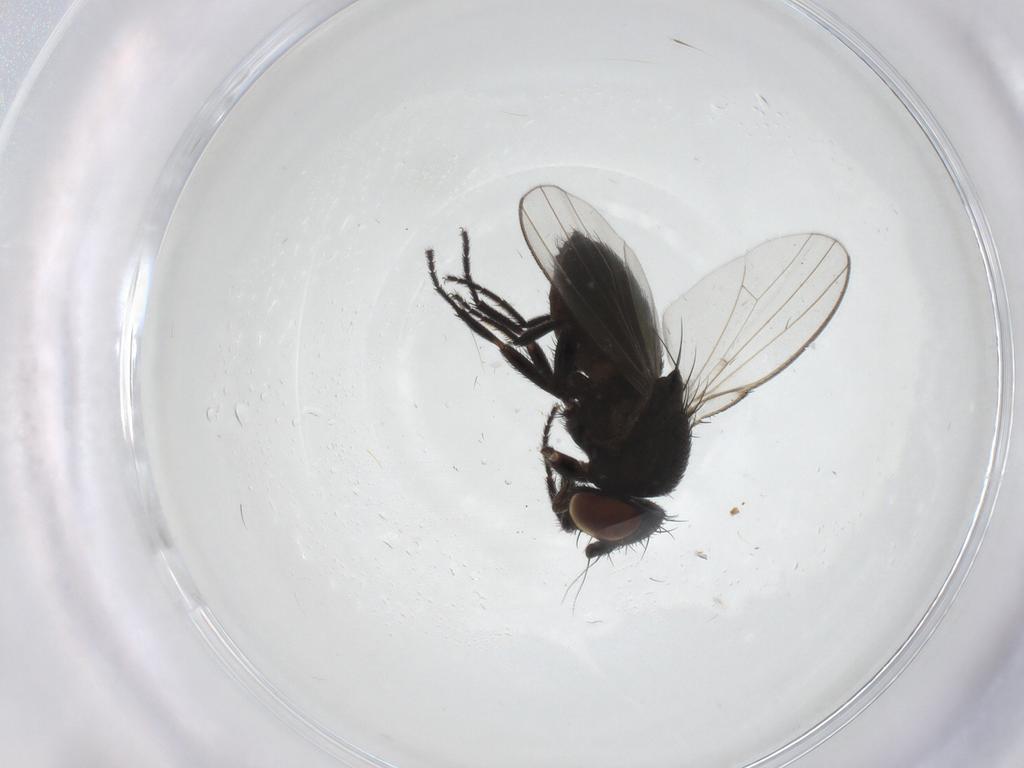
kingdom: Animalia
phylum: Arthropoda
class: Insecta
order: Diptera
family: Milichiidae
